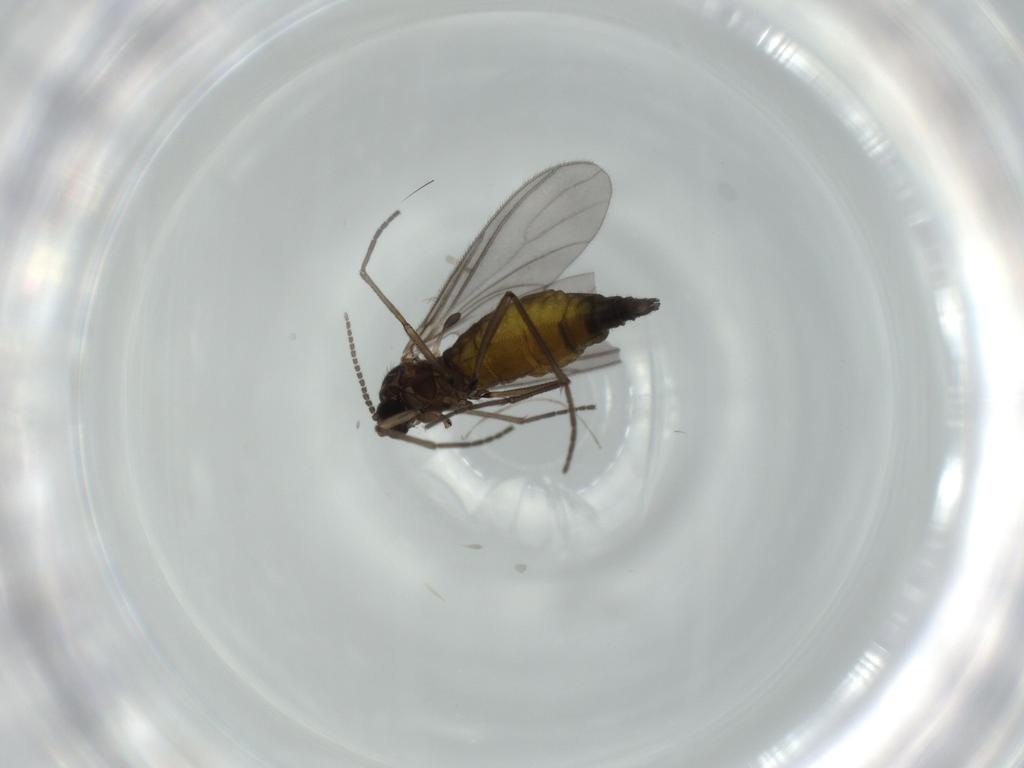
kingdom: Animalia
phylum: Arthropoda
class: Insecta
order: Diptera
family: Sciaridae
